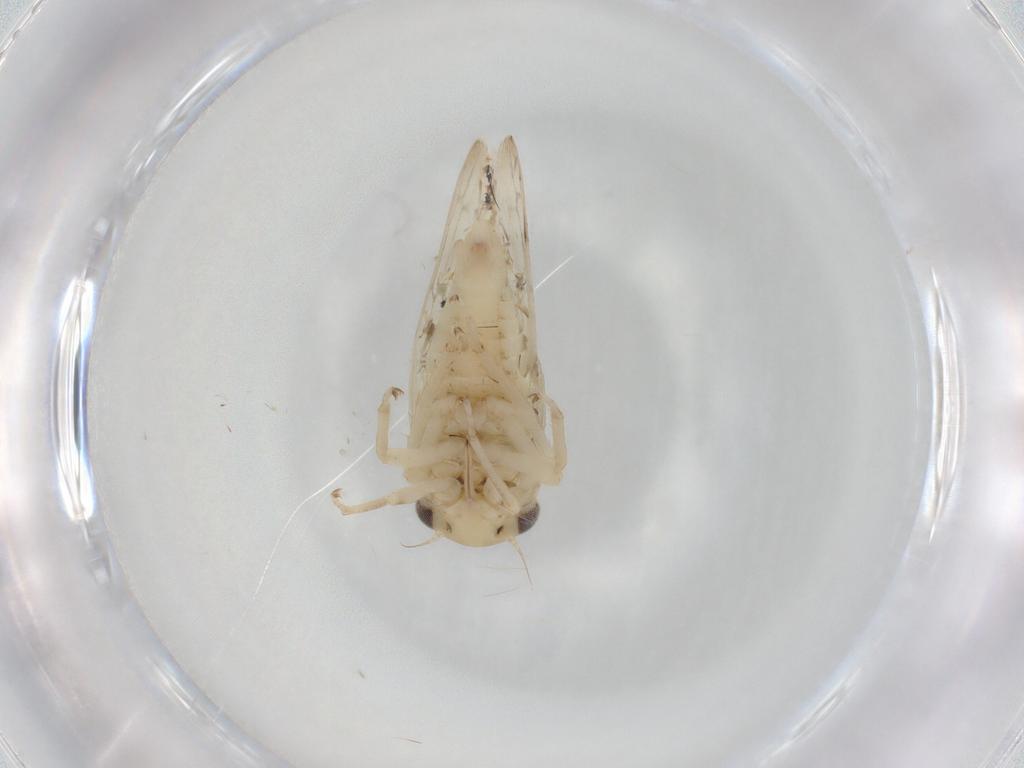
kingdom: Animalia
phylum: Arthropoda
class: Insecta
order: Hemiptera
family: Cicadellidae
